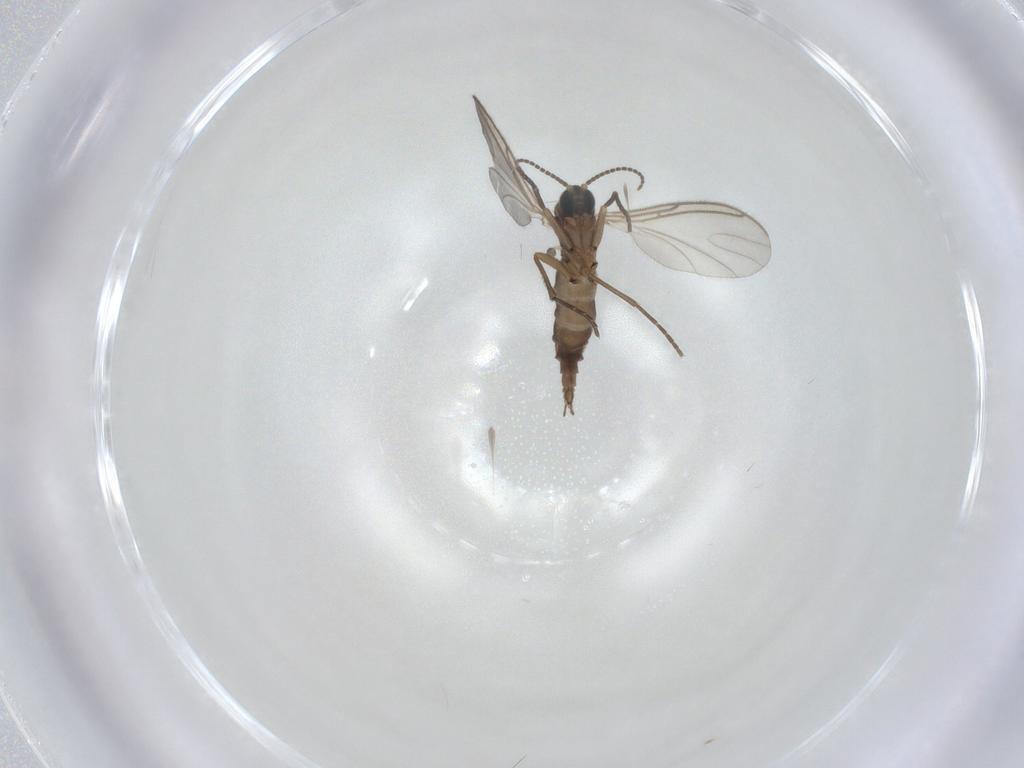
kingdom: Animalia
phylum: Arthropoda
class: Insecta
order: Diptera
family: Sciaridae
